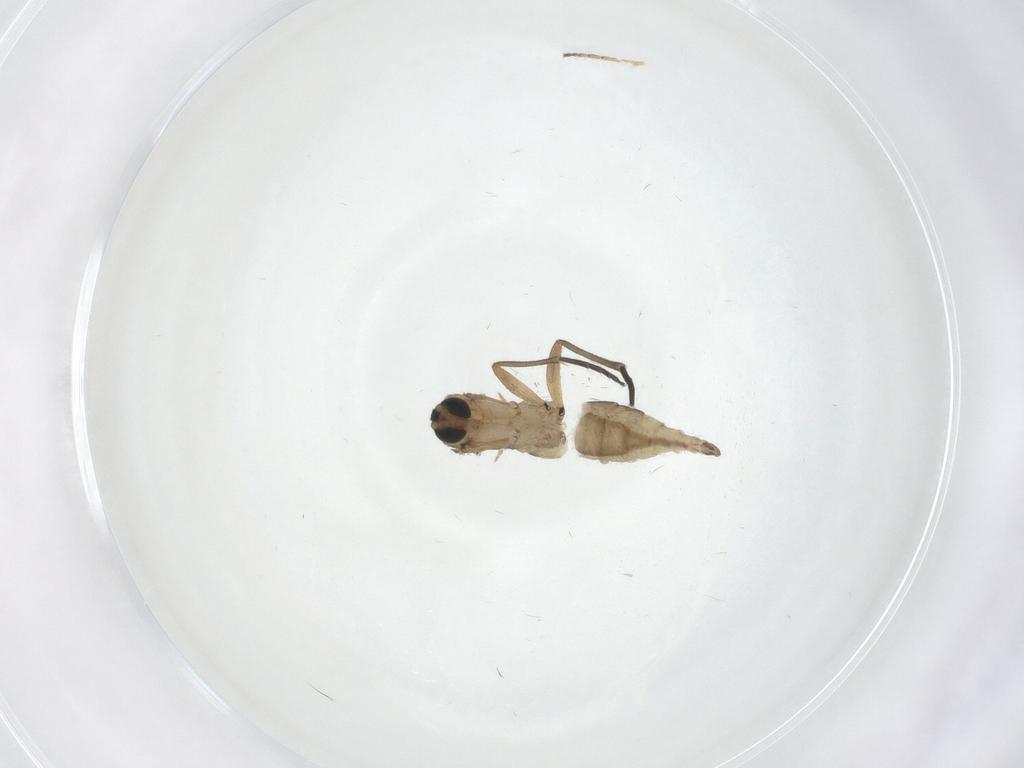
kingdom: Animalia
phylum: Arthropoda
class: Insecta
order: Diptera
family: Sciaridae
